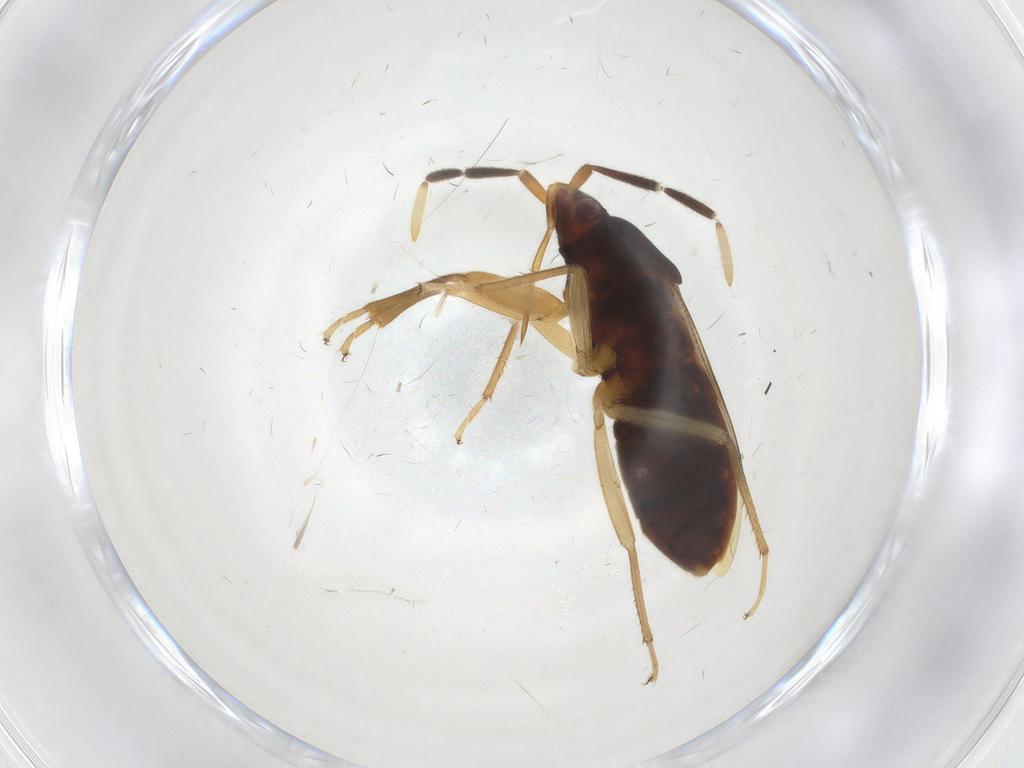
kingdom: Animalia
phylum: Arthropoda
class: Insecta
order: Hemiptera
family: Rhyparochromidae
